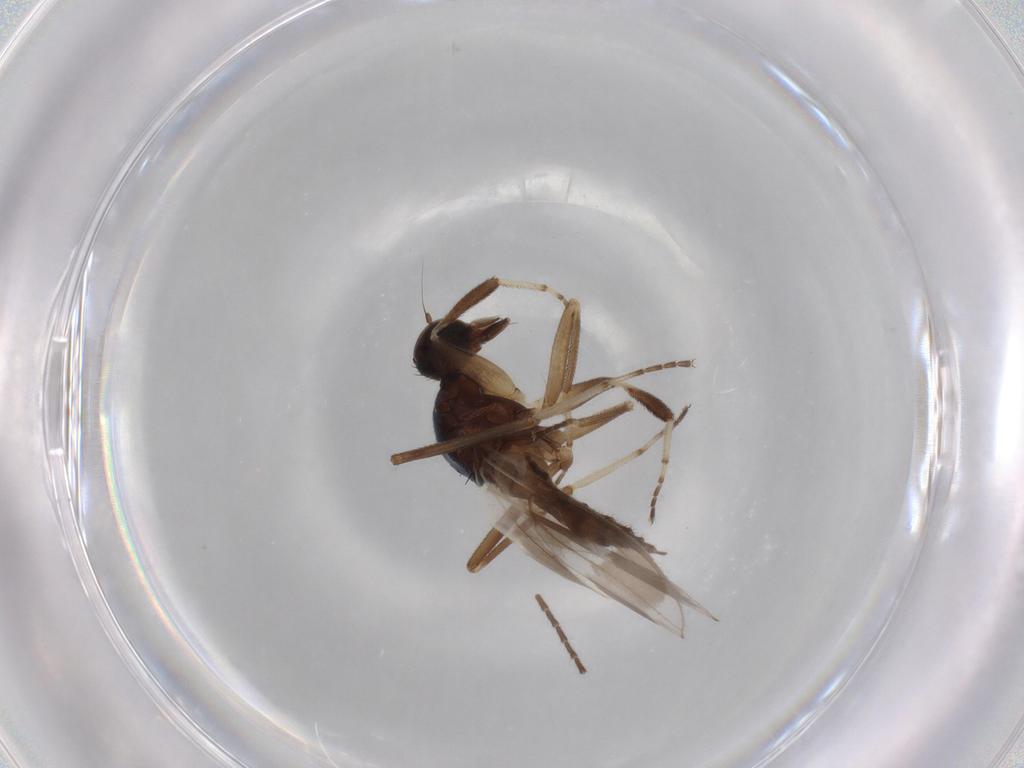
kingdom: Animalia
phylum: Arthropoda
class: Insecta
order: Diptera
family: Hybotidae
